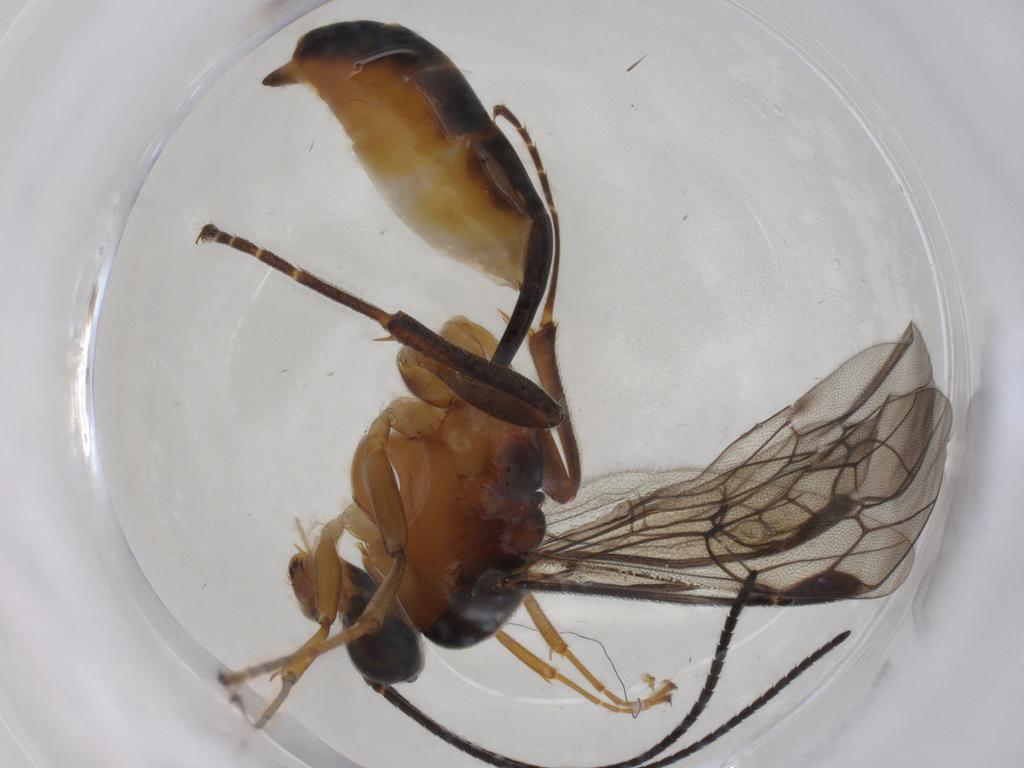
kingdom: Animalia
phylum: Arthropoda
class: Insecta
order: Hymenoptera
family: Ichneumonidae
